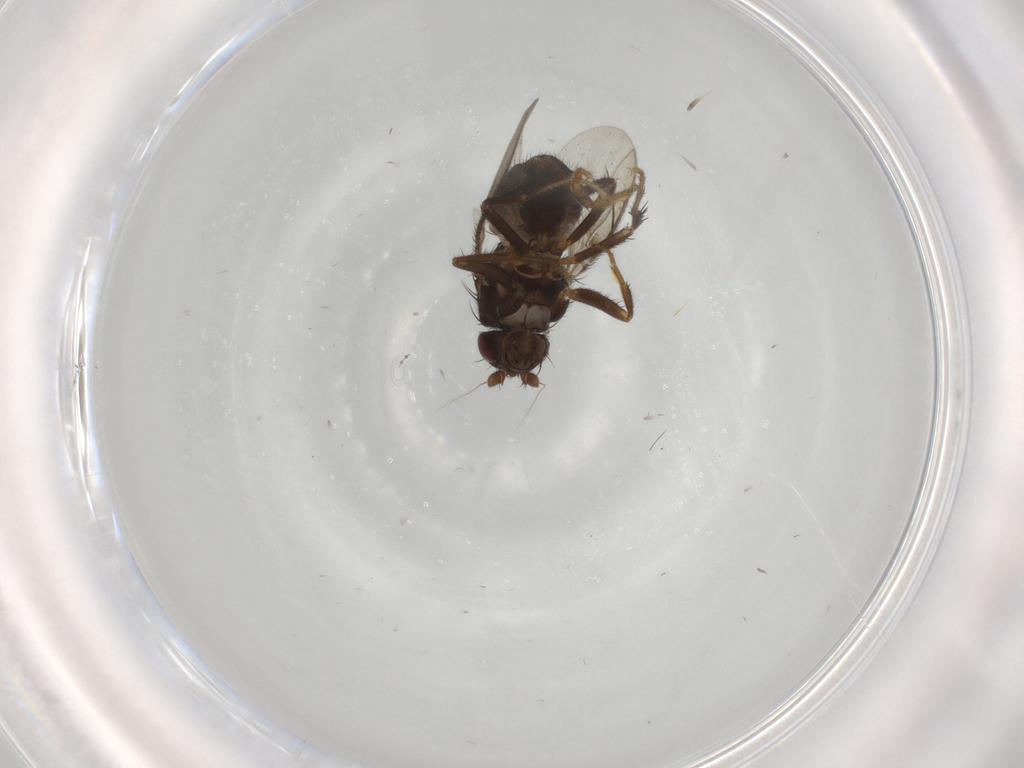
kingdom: Animalia
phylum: Arthropoda
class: Insecta
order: Diptera
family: Sphaeroceridae
